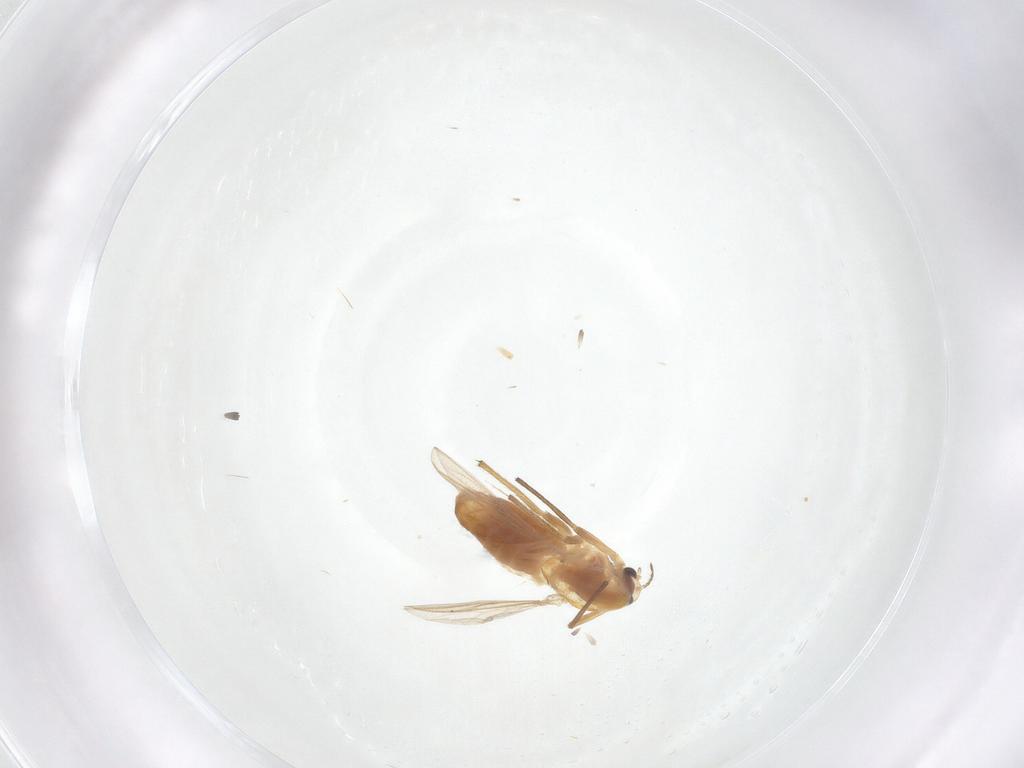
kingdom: Animalia
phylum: Arthropoda
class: Insecta
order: Diptera
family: Chironomidae
